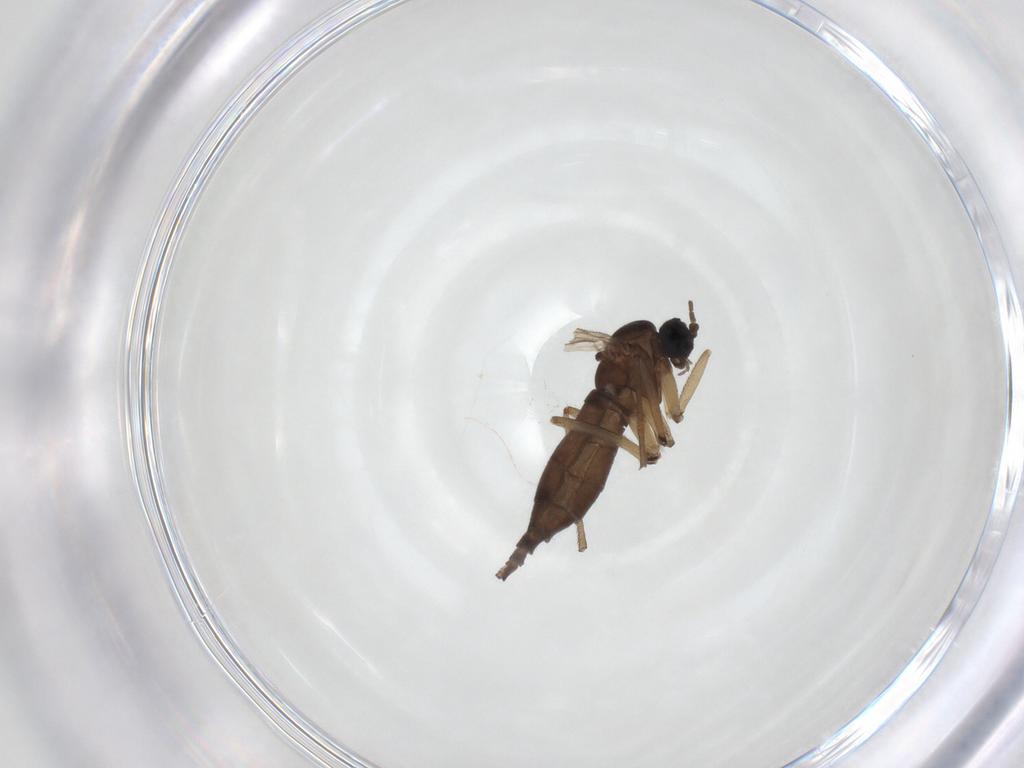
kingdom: Animalia
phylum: Arthropoda
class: Insecta
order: Diptera
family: Sciaridae
